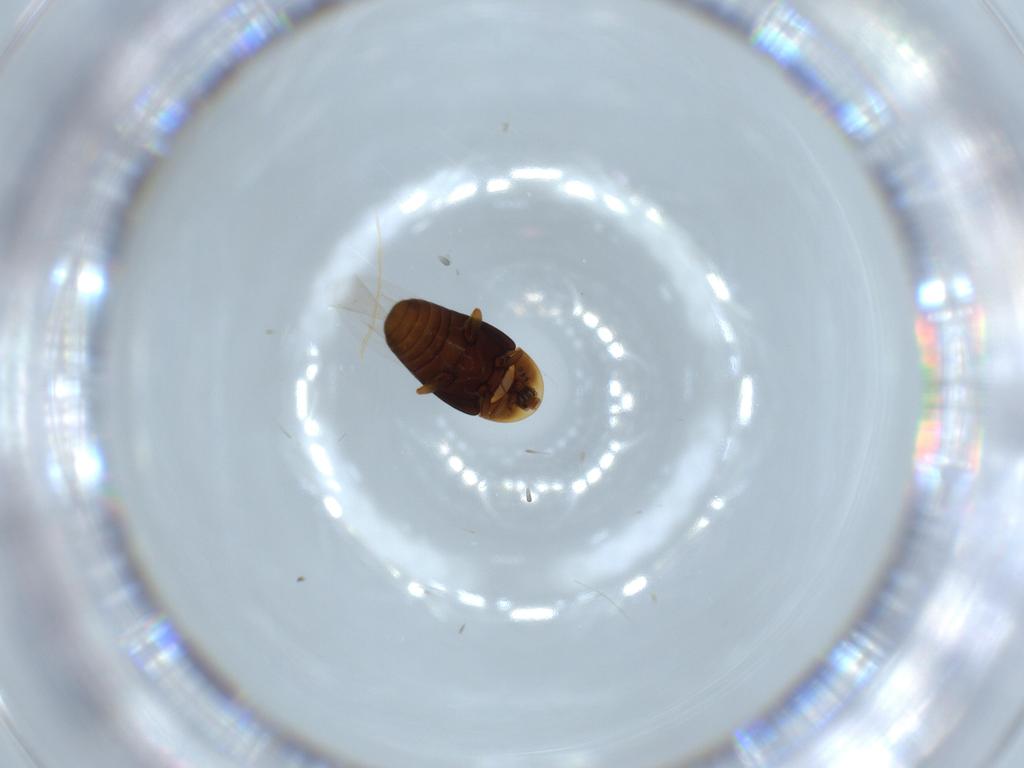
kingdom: Animalia
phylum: Arthropoda
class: Insecta
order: Coleoptera
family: Corylophidae
